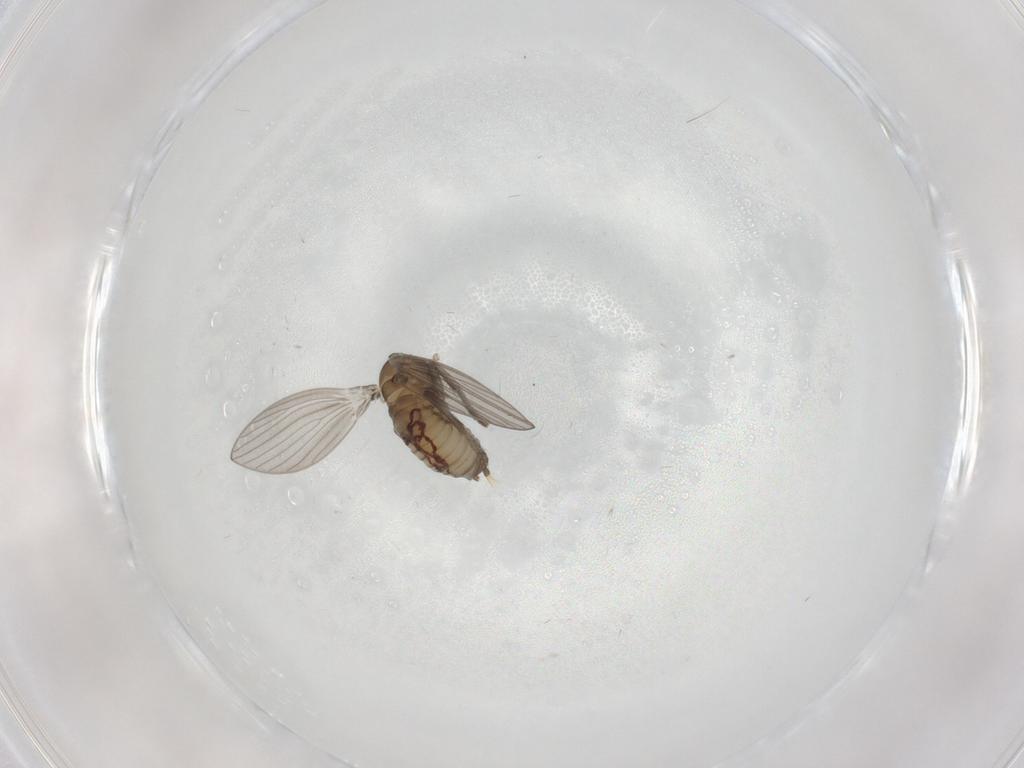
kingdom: Animalia
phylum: Arthropoda
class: Insecta
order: Diptera
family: Psychodidae
